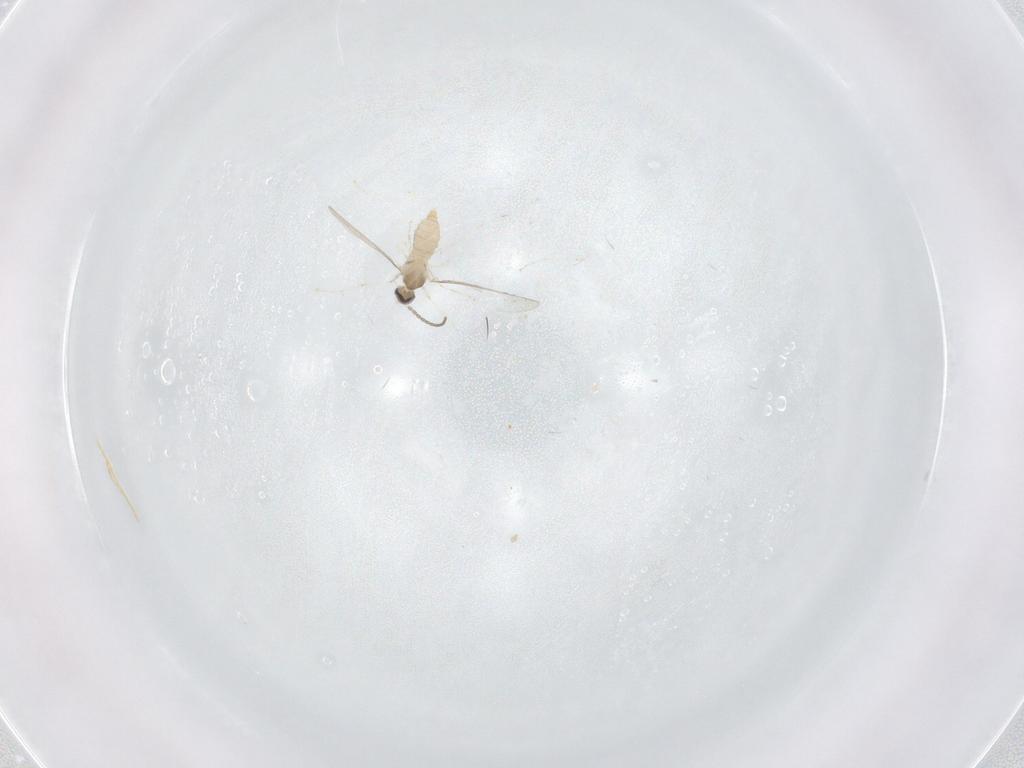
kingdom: Animalia
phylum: Arthropoda
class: Insecta
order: Diptera
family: Cecidomyiidae
